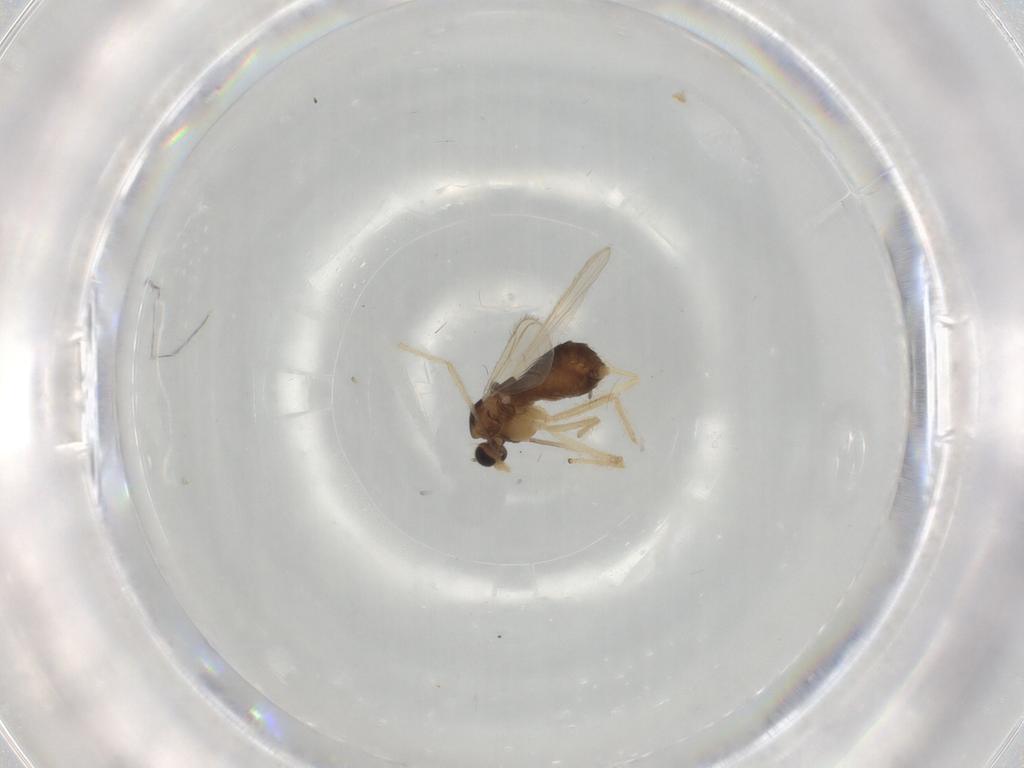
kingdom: Animalia
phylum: Arthropoda
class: Insecta
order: Diptera
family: Chironomidae
